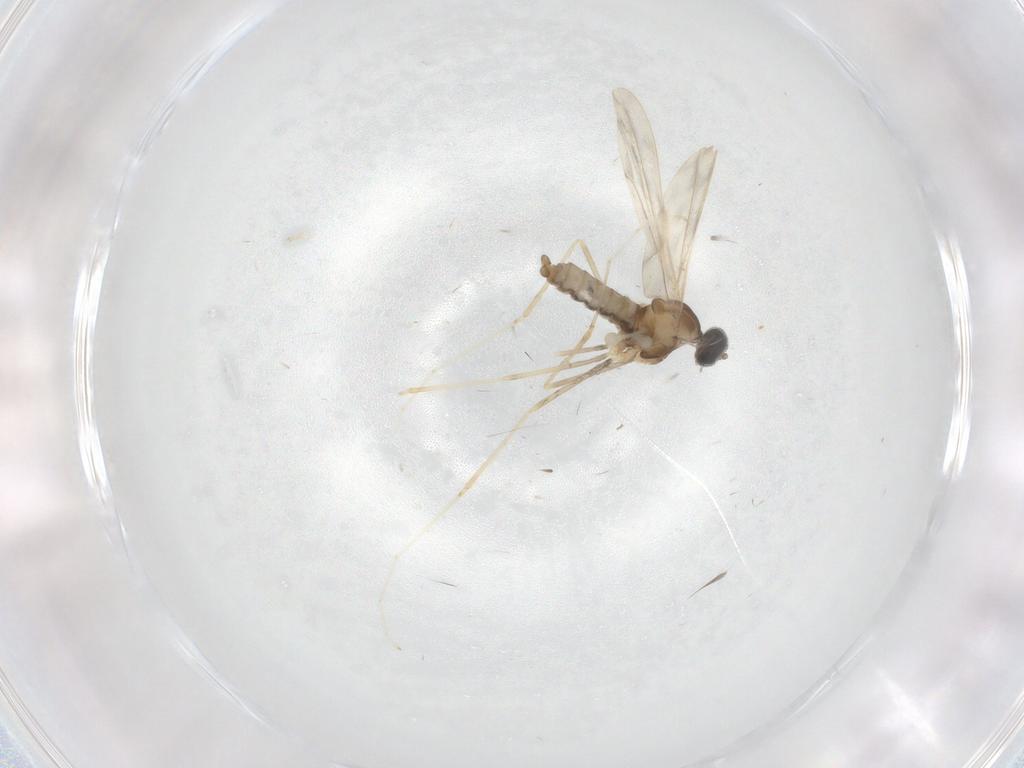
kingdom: Animalia
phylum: Arthropoda
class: Insecta
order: Diptera
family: Cecidomyiidae
